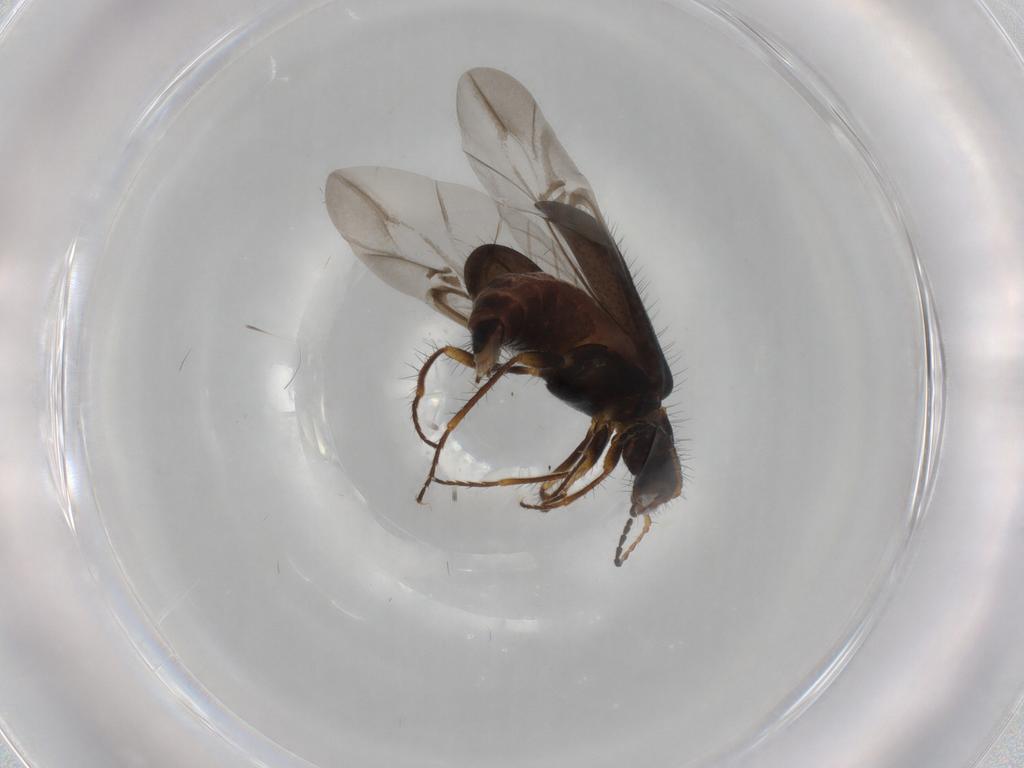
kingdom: Animalia
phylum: Arthropoda
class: Insecta
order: Coleoptera
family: Melyridae
